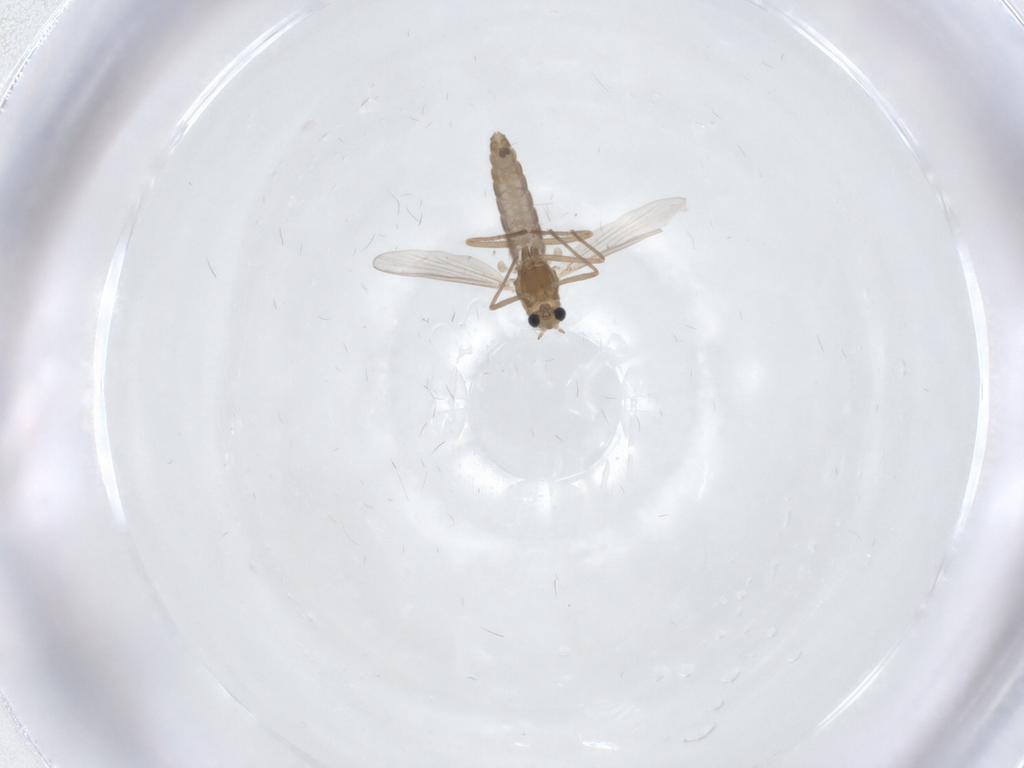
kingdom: Animalia
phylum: Arthropoda
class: Insecta
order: Diptera
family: Chironomidae
